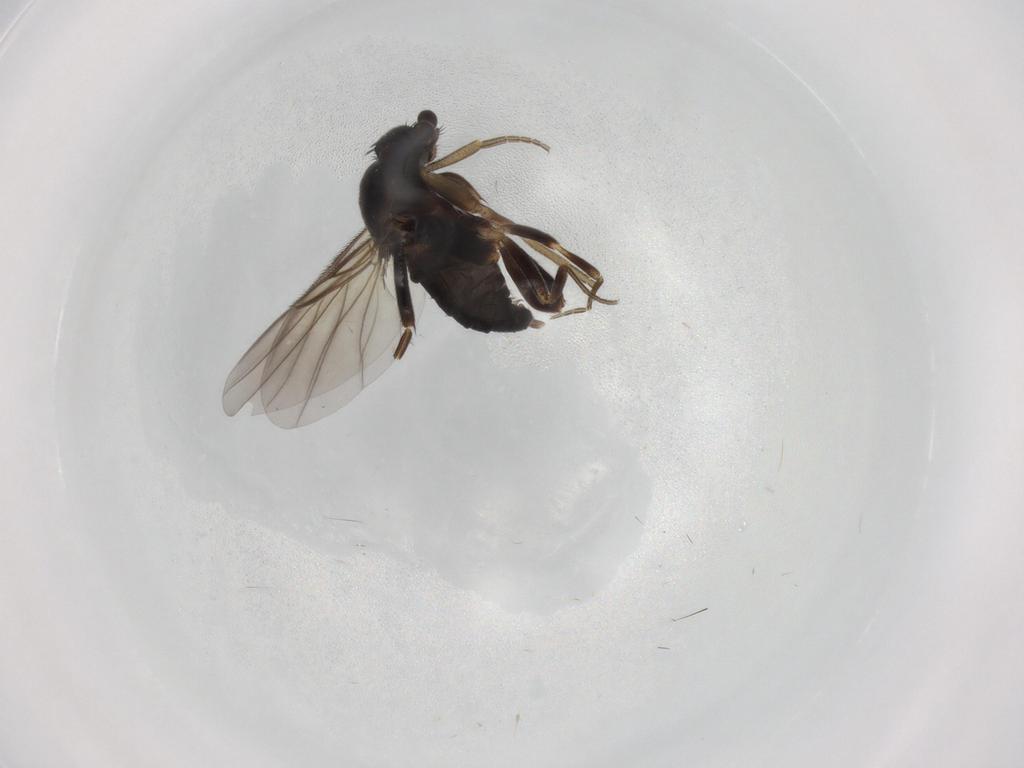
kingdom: Animalia
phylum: Arthropoda
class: Insecta
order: Diptera
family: Phoridae
